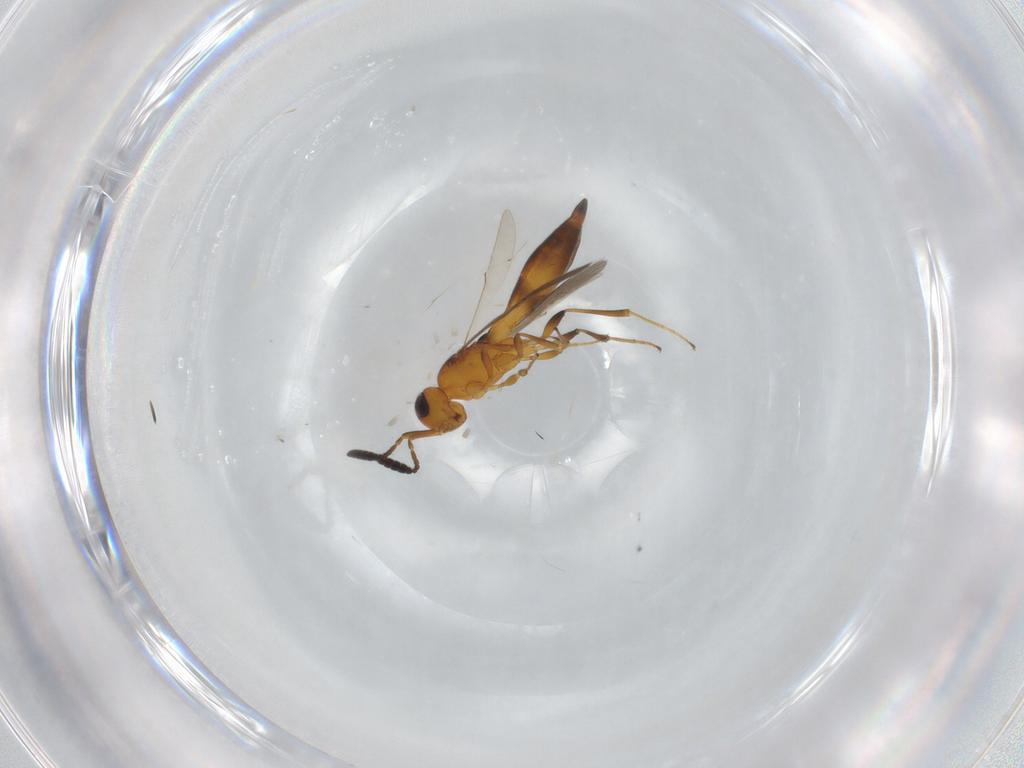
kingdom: Animalia
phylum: Arthropoda
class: Insecta
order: Hymenoptera
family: Scelionidae
